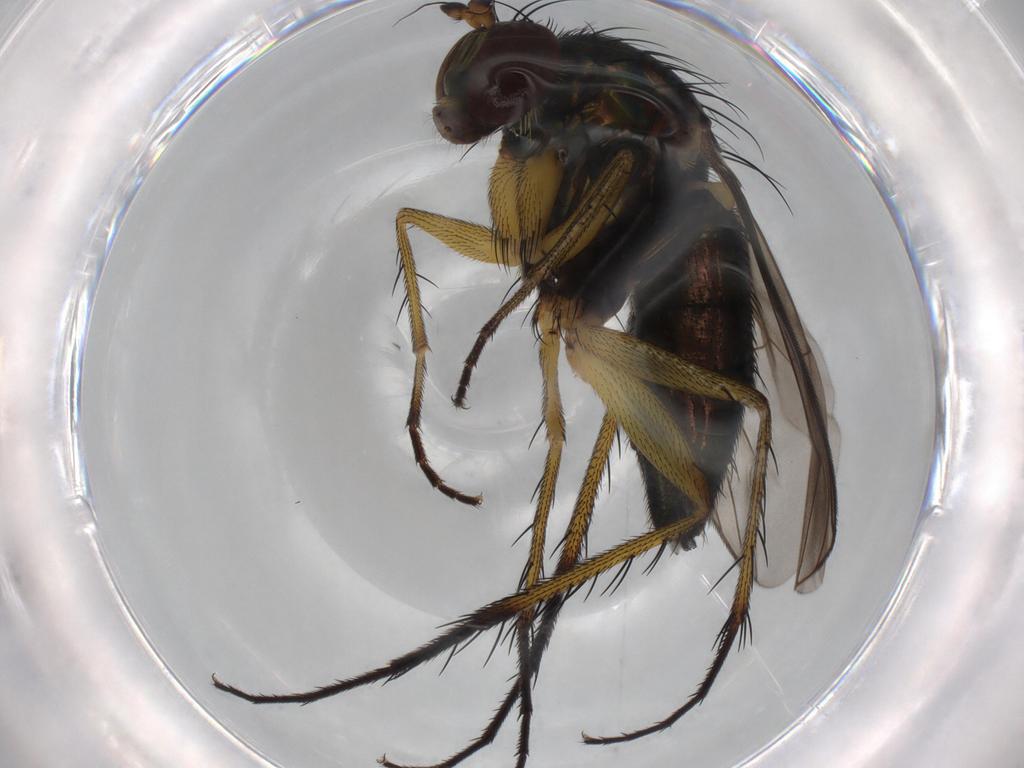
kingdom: Animalia
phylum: Arthropoda
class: Insecta
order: Diptera
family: Dolichopodidae
